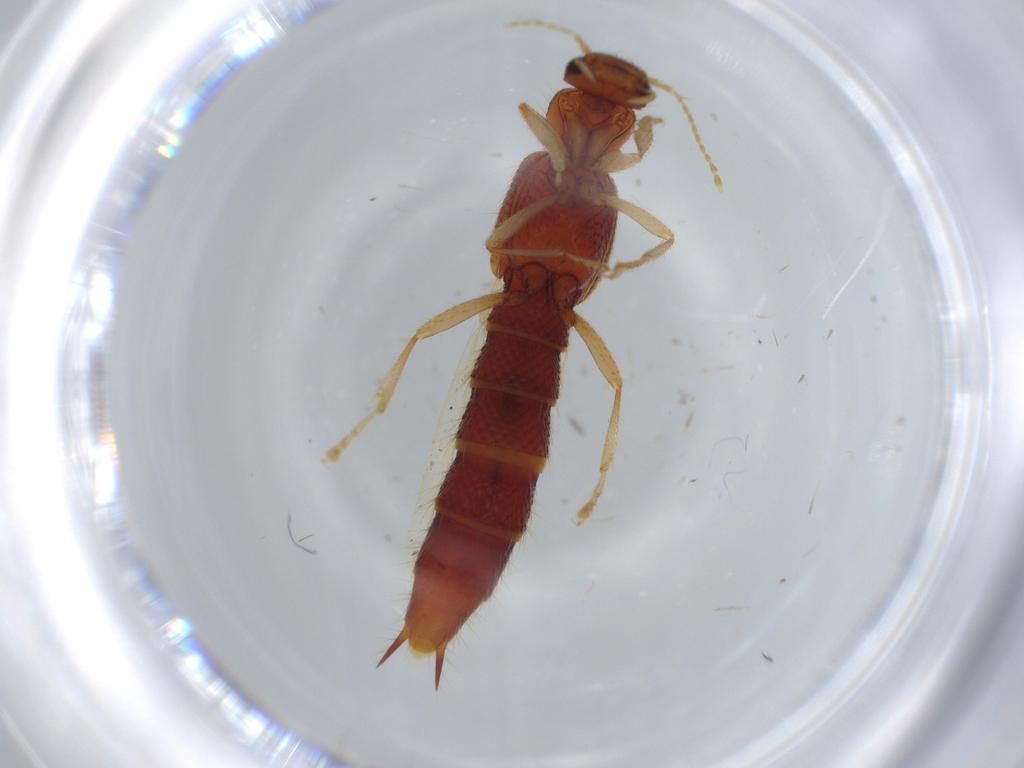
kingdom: Animalia
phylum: Arthropoda
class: Insecta
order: Coleoptera
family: Staphylinidae
